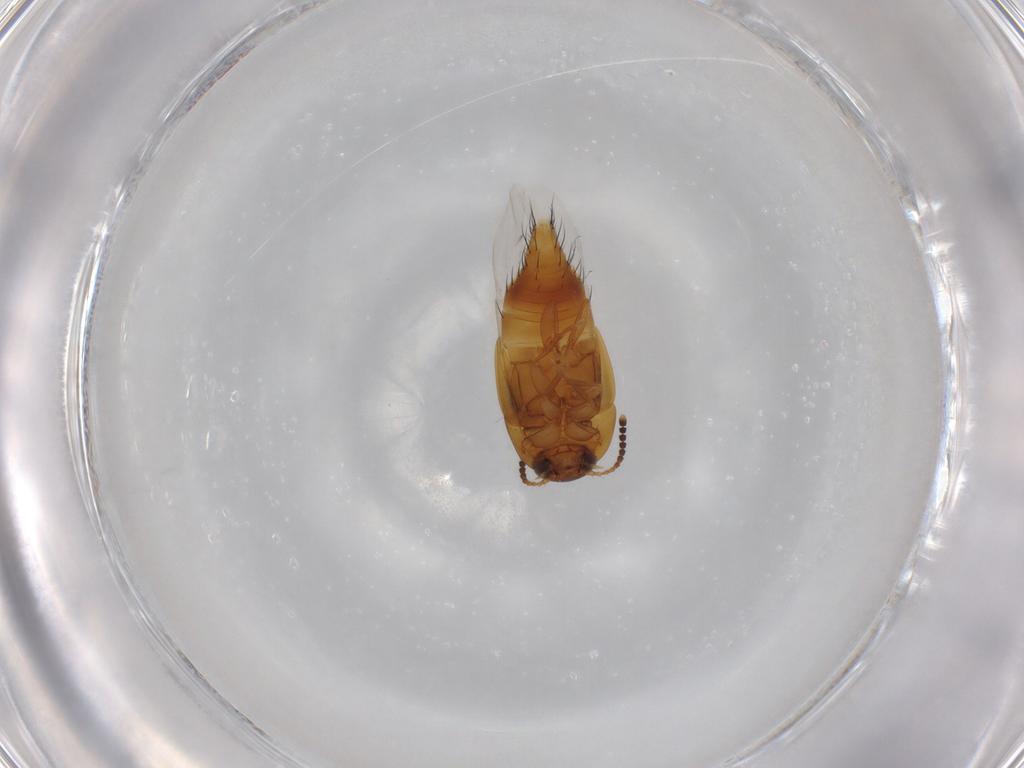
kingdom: Animalia
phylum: Arthropoda
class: Insecta
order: Coleoptera
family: Staphylinidae
